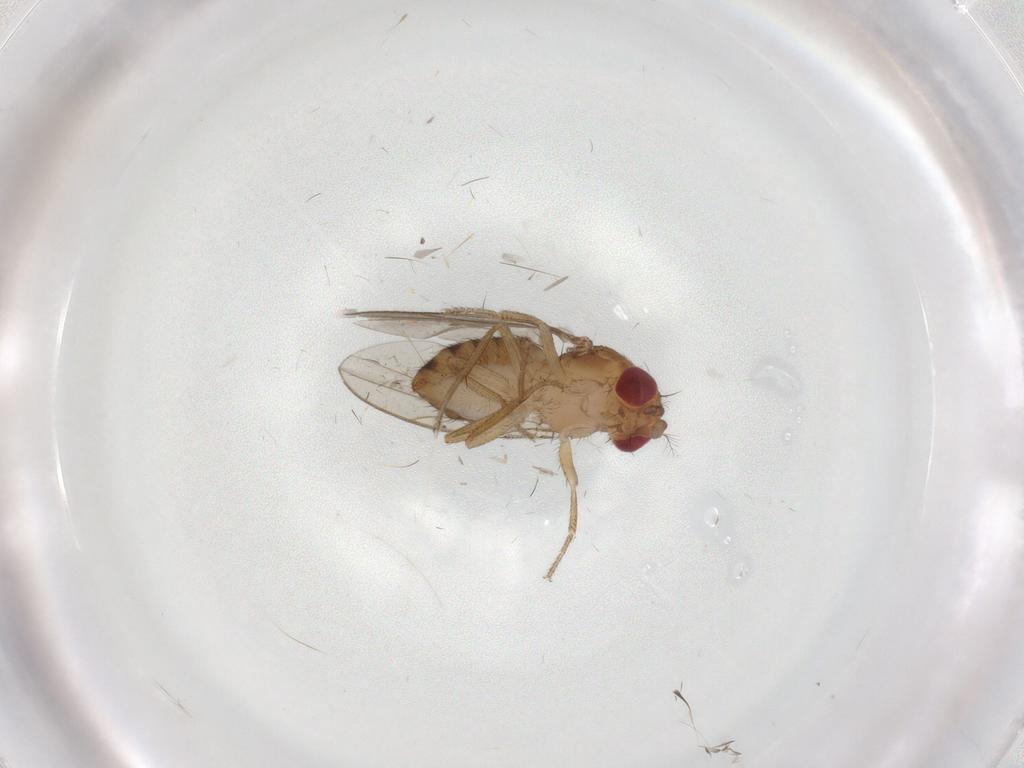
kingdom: Animalia
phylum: Arthropoda
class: Insecta
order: Diptera
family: Drosophilidae
